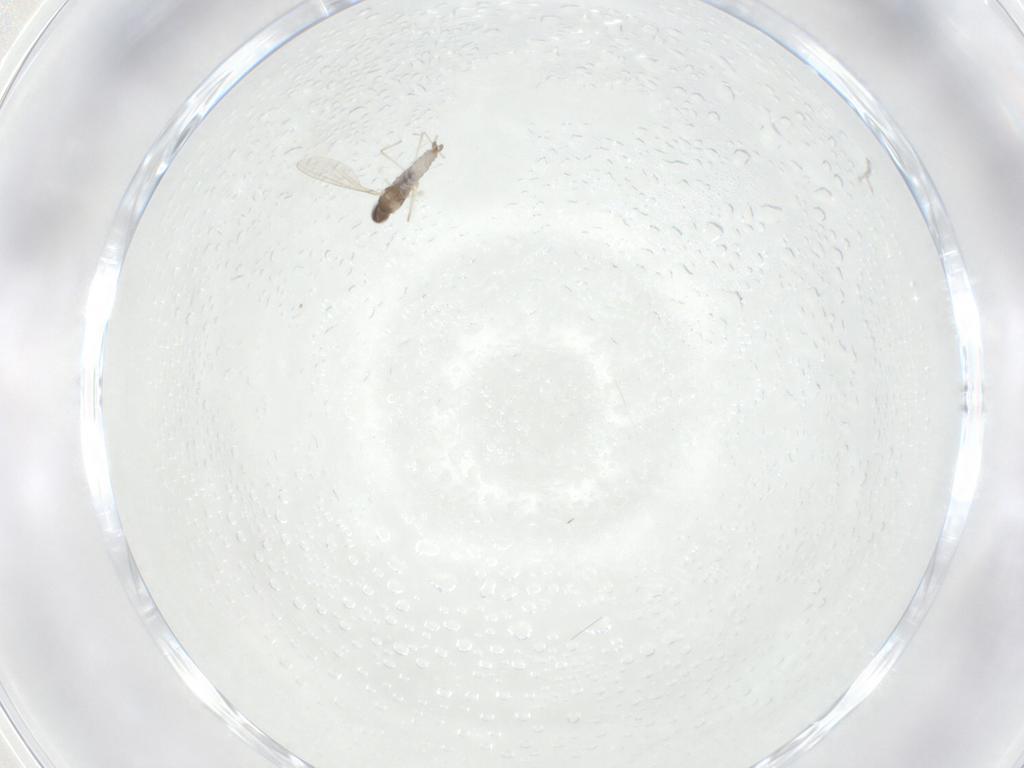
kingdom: Animalia
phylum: Arthropoda
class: Insecta
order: Diptera
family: Cecidomyiidae
